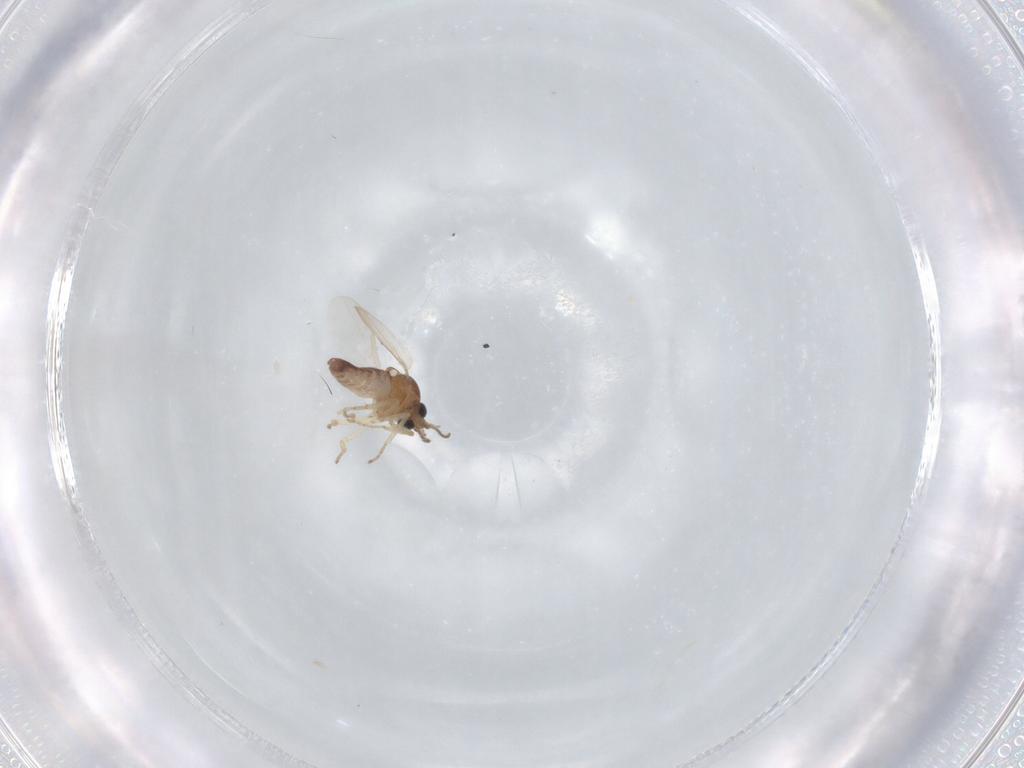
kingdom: Animalia
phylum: Arthropoda
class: Insecta
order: Diptera
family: Ceratopogonidae
